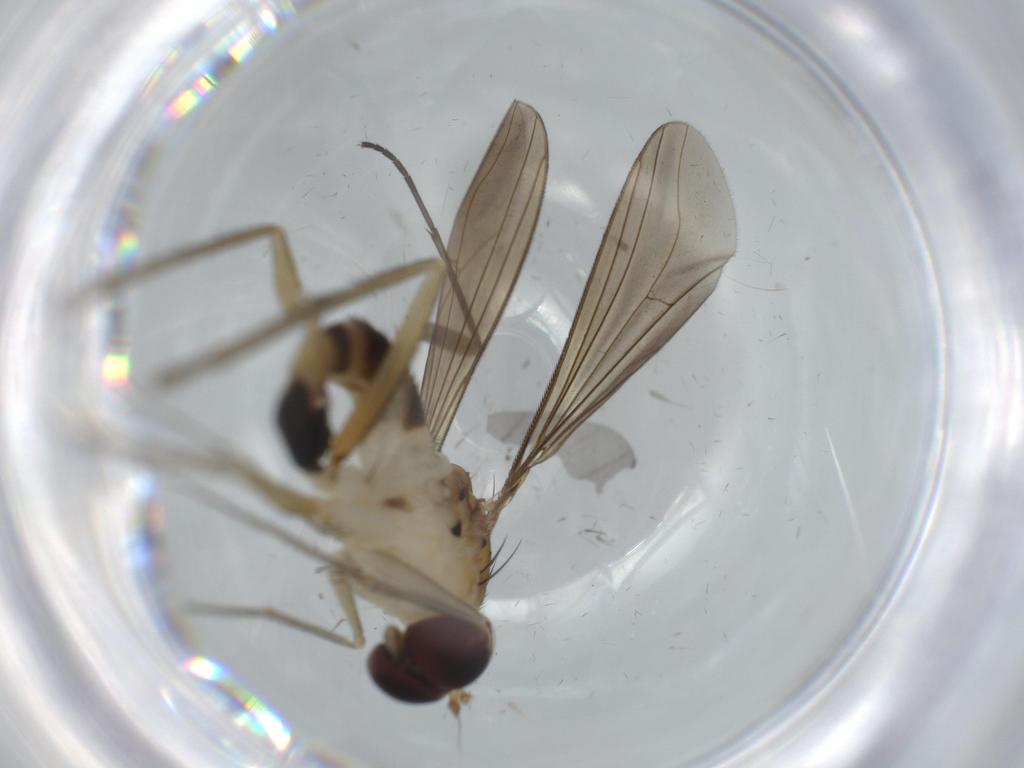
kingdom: Animalia
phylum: Arthropoda
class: Insecta
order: Diptera
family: Dolichopodidae
